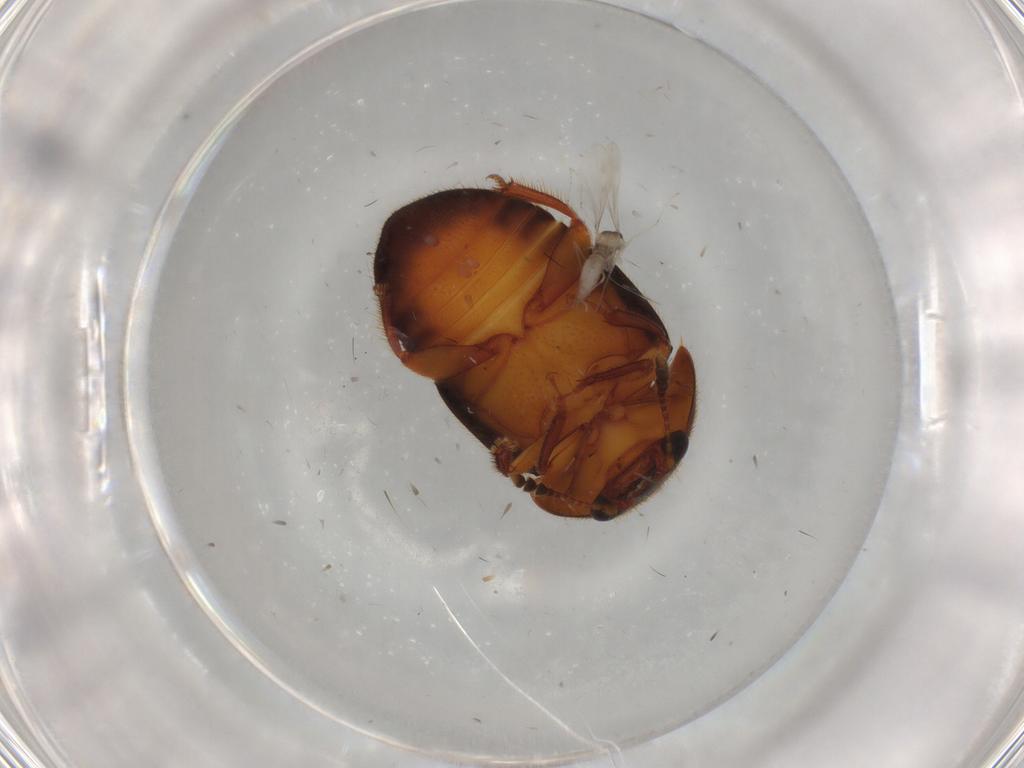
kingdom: Animalia
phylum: Arthropoda
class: Insecta
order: Coleoptera
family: Nitidulidae
